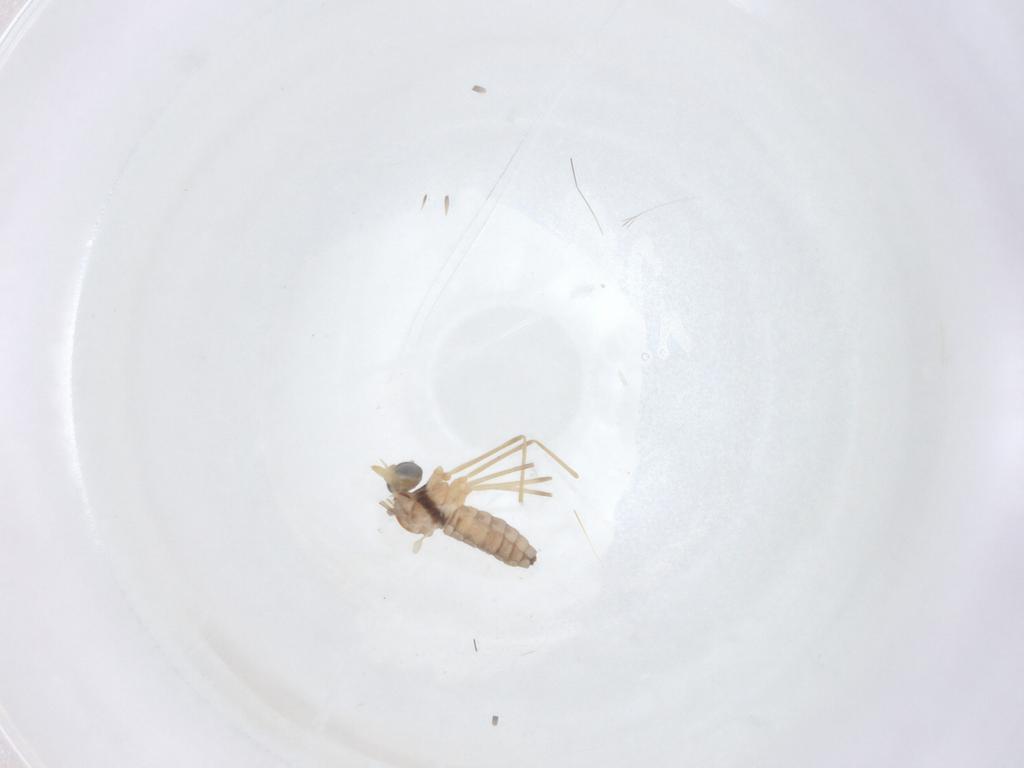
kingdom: Animalia
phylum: Arthropoda
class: Insecta
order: Diptera
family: Cecidomyiidae
